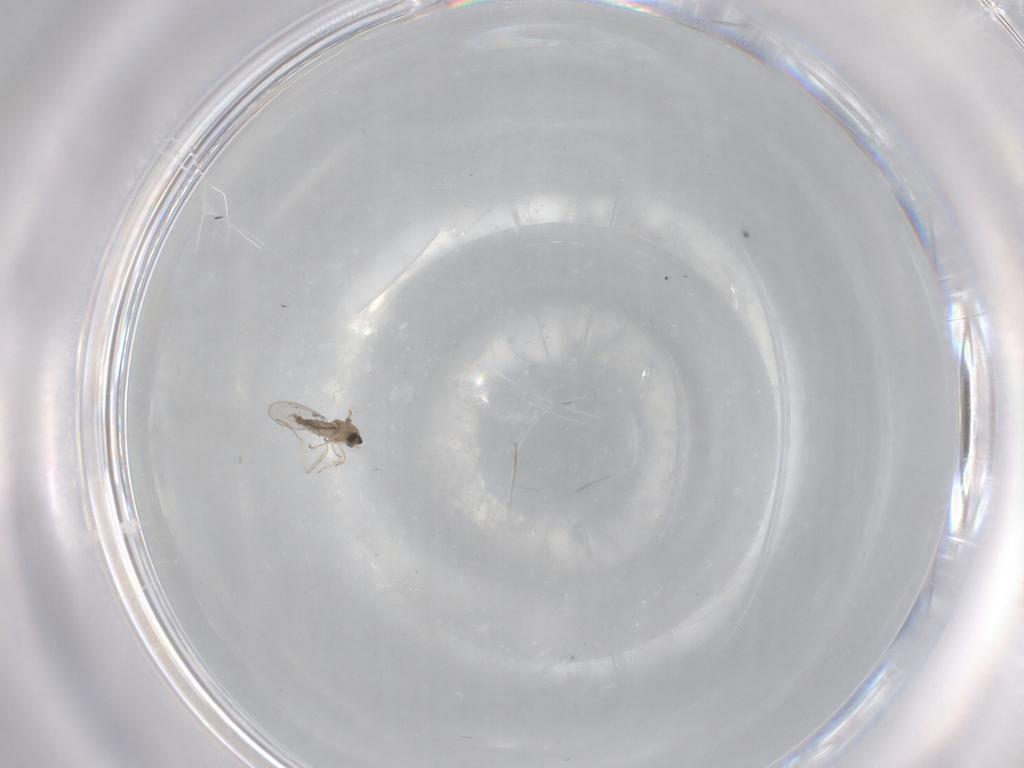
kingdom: Animalia
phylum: Arthropoda
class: Insecta
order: Diptera
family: Cecidomyiidae
